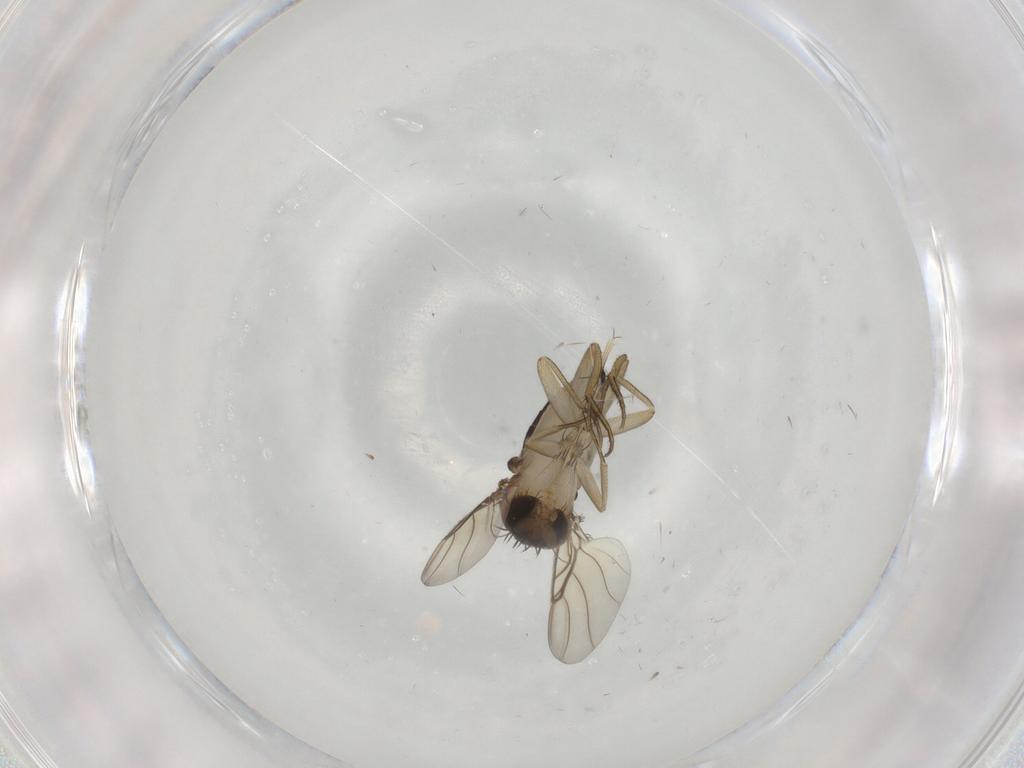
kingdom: Animalia
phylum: Arthropoda
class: Insecta
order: Diptera
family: Phoridae
